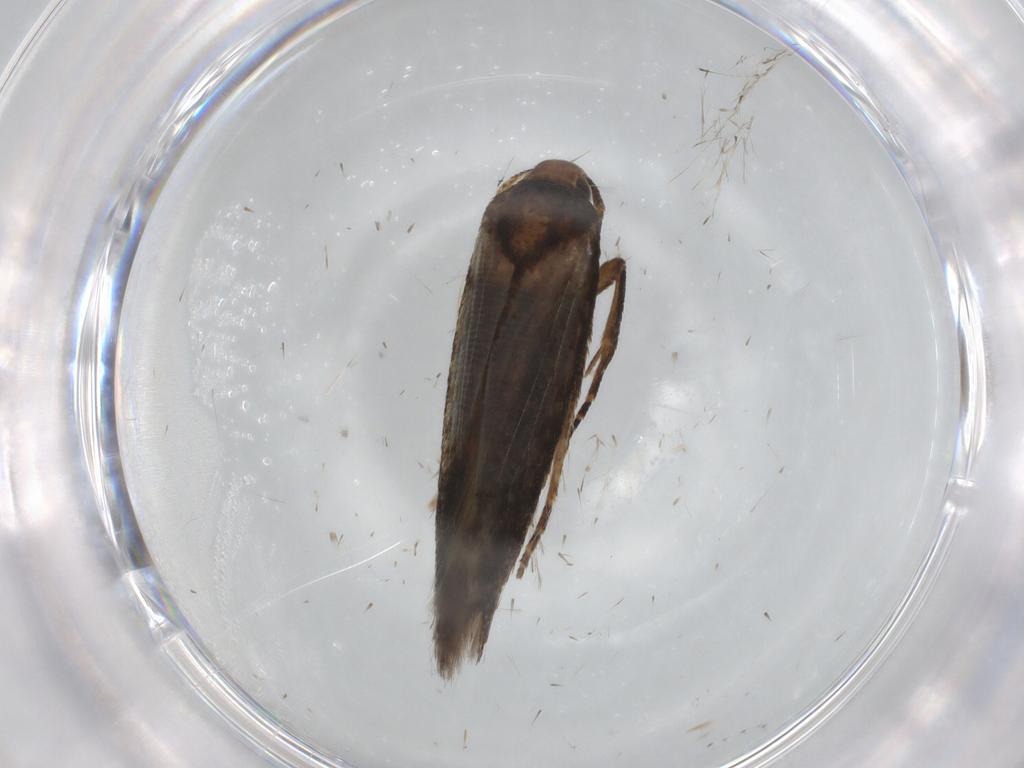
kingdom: Animalia
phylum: Arthropoda
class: Insecta
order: Lepidoptera
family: Cosmopterigidae
